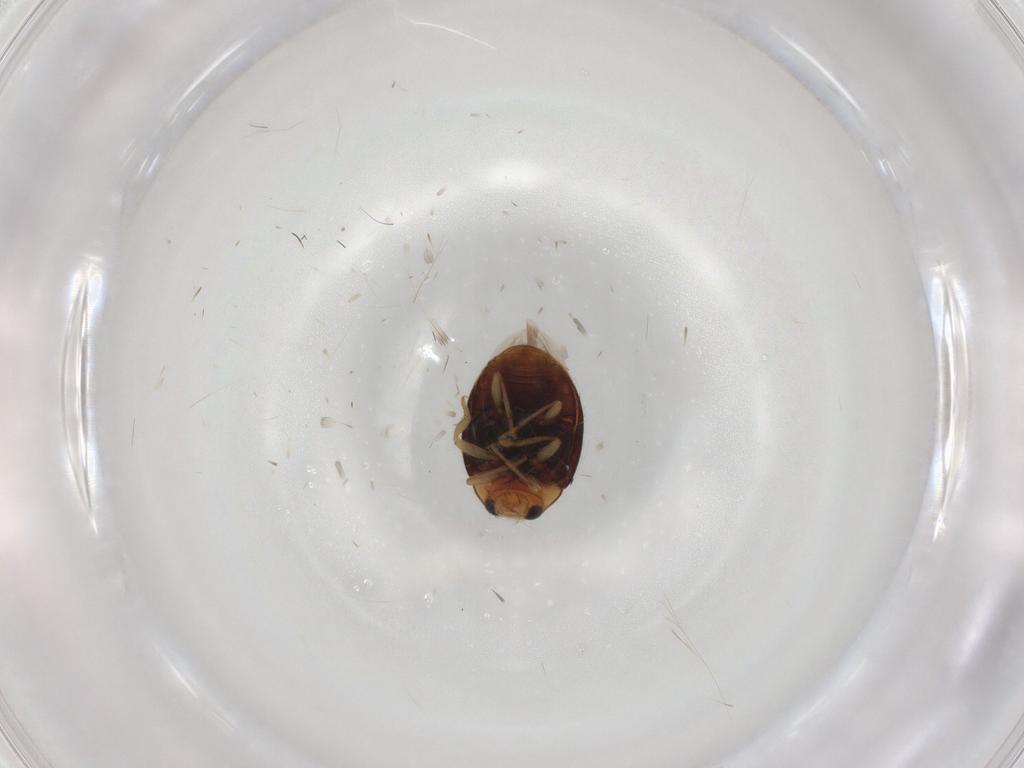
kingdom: Animalia
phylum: Arthropoda
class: Insecta
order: Coleoptera
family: Coccinellidae
